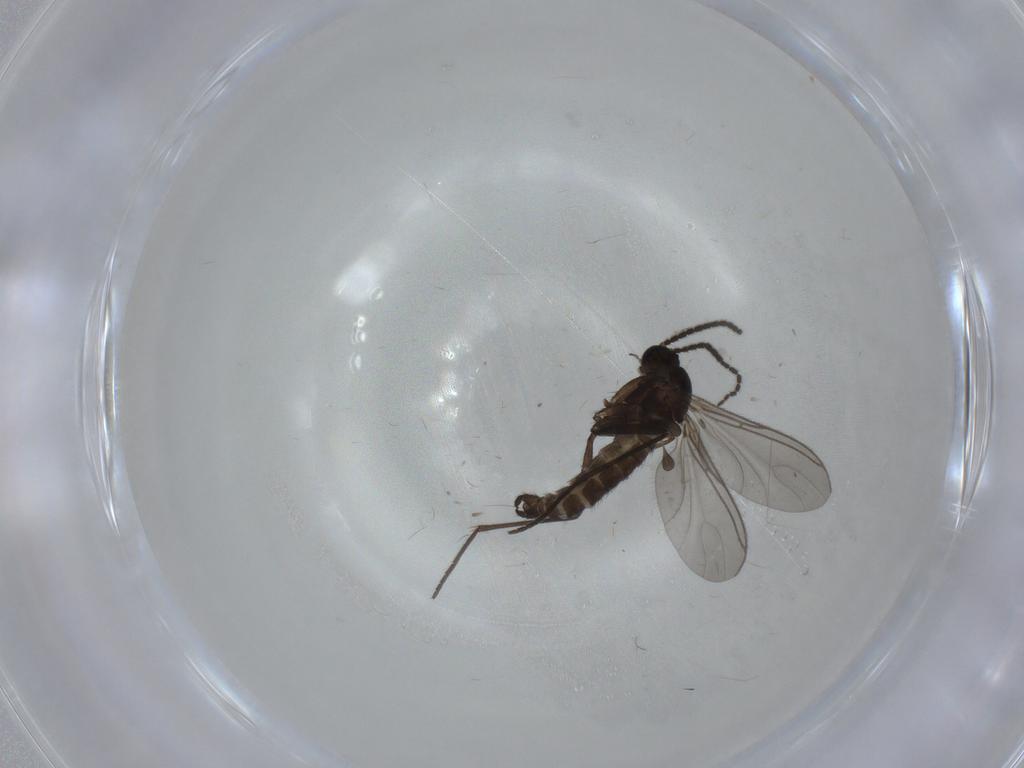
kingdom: Animalia
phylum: Arthropoda
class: Insecta
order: Diptera
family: Sciaridae
